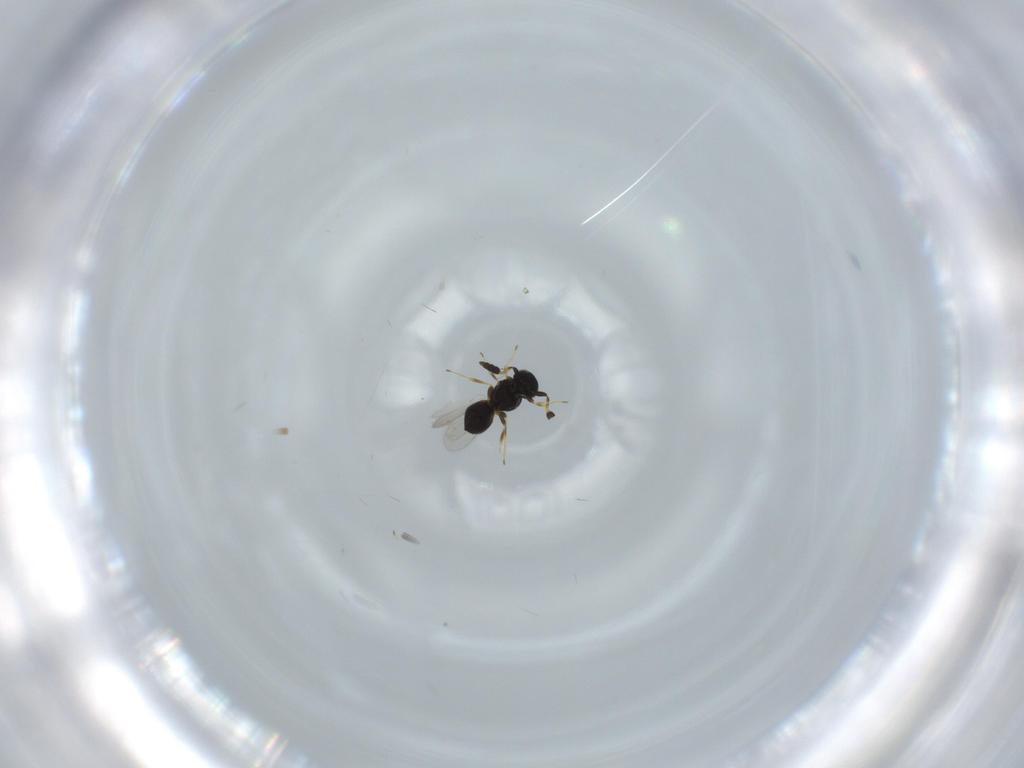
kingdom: Animalia
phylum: Arthropoda
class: Insecta
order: Hymenoptera
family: Scelionidae
